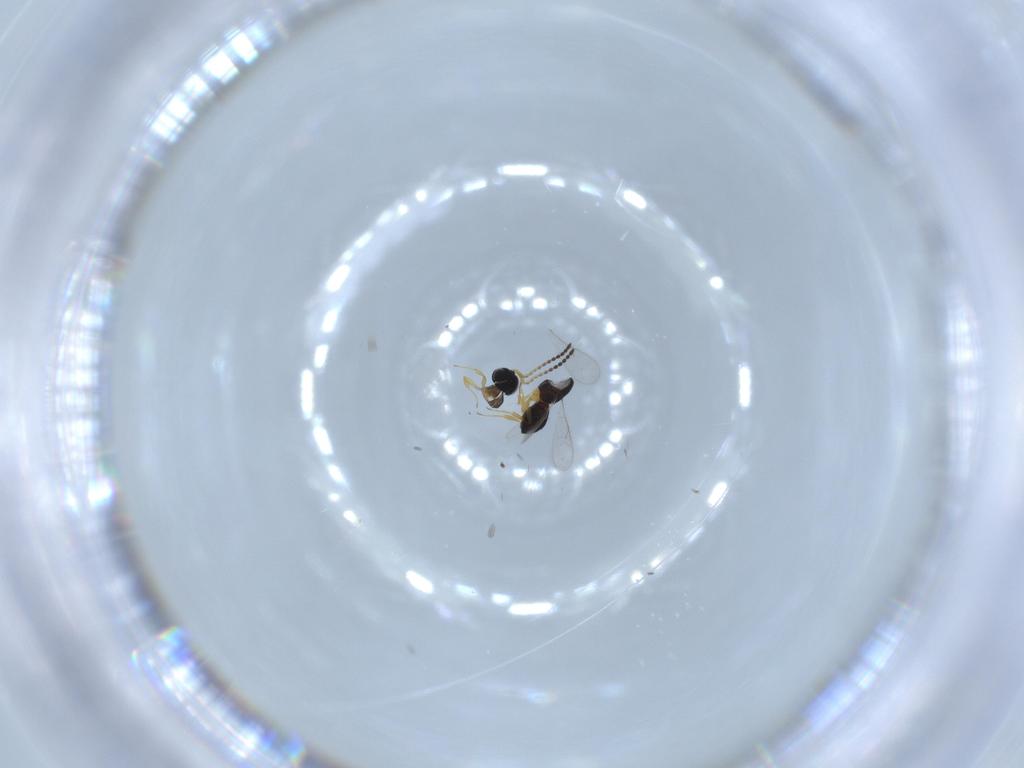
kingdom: Animalia
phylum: Arthropoda
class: Insecta
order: Hymenoptera
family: Scelionidae
